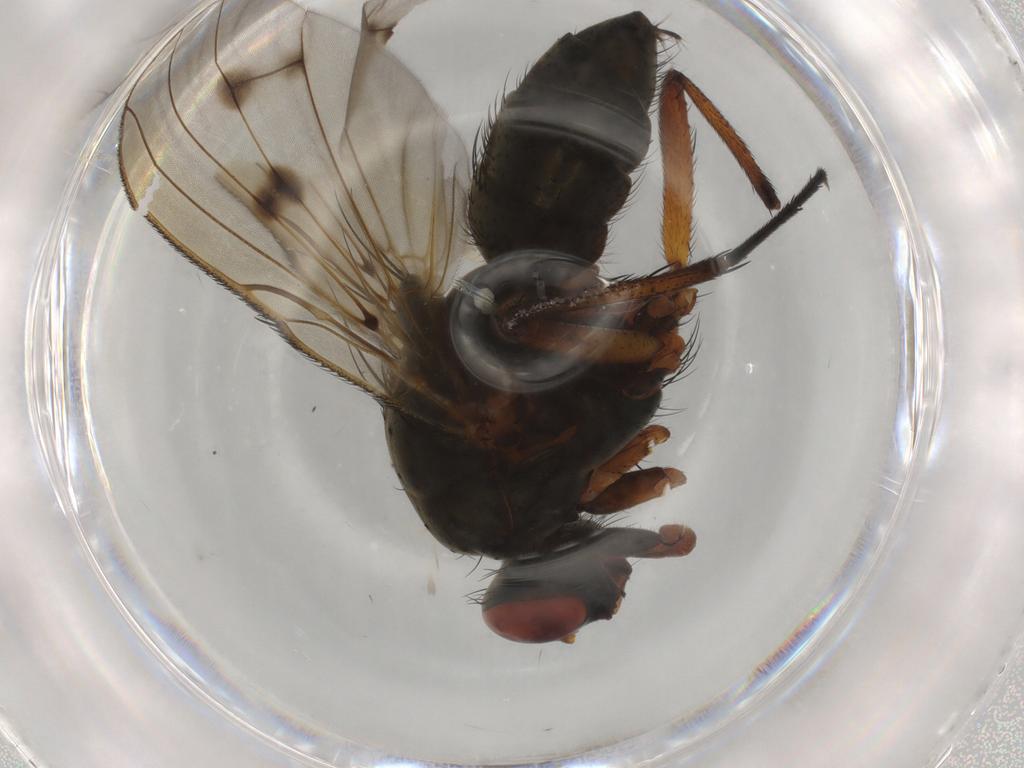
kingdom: Animalia
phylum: Arthropoda
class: Insecta
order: Diptera
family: Anthomyiidae
